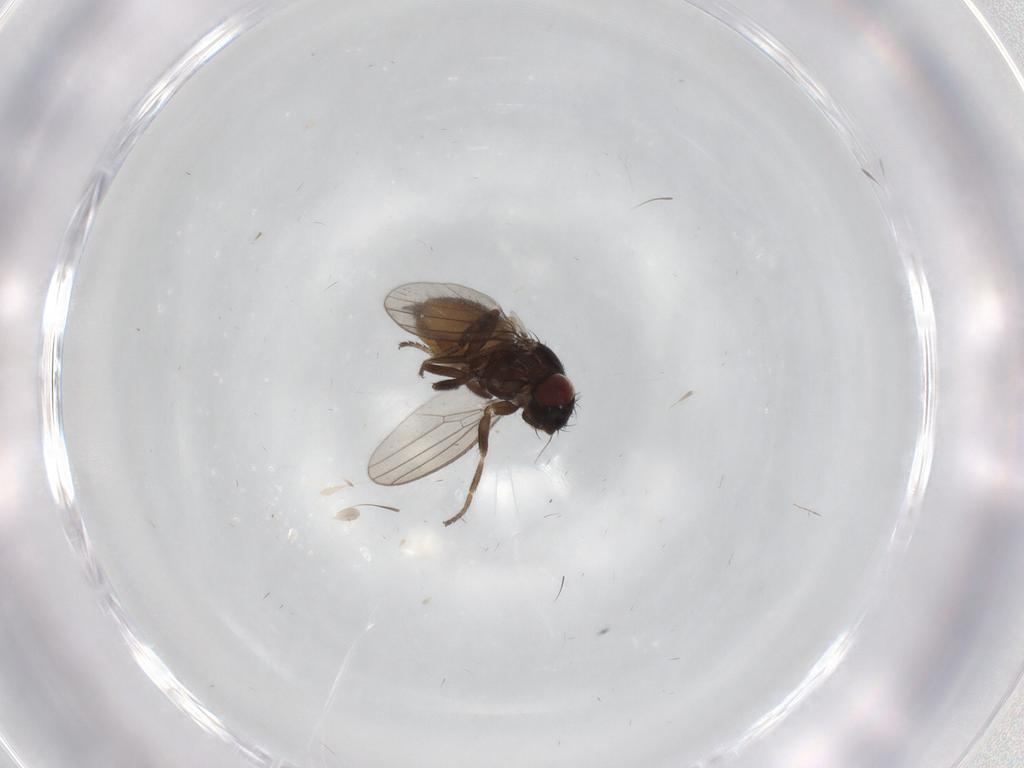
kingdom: Animalia
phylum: Arthropoda
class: Insecta
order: Diptera
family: Milichiidae
